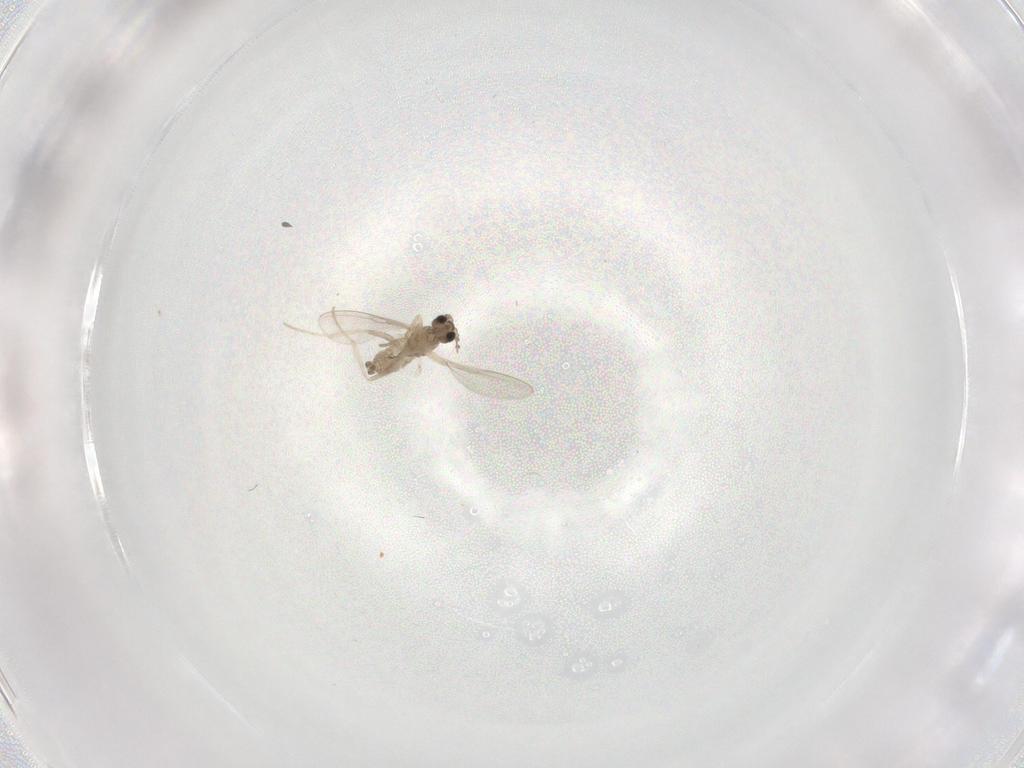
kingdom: Animalia
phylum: Arthropoda
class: Insecta
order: Diptera
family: Cecidomyiidae
